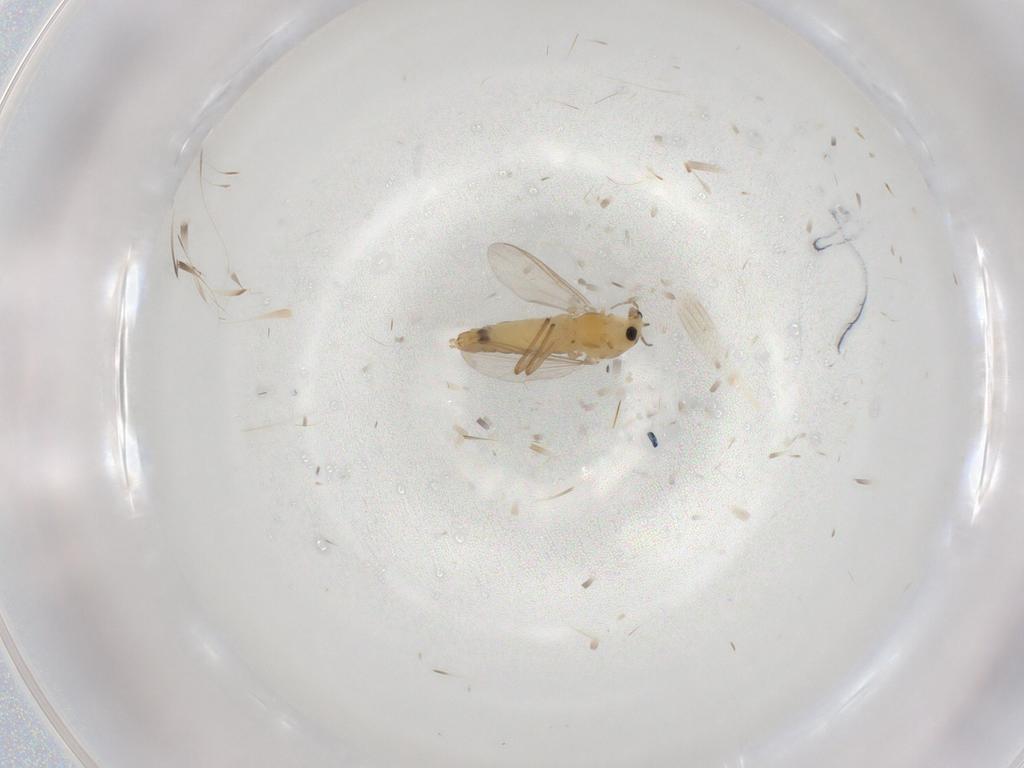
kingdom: Animalia
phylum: Arthropoda
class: Insecta
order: Diptera
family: Chironomidae
